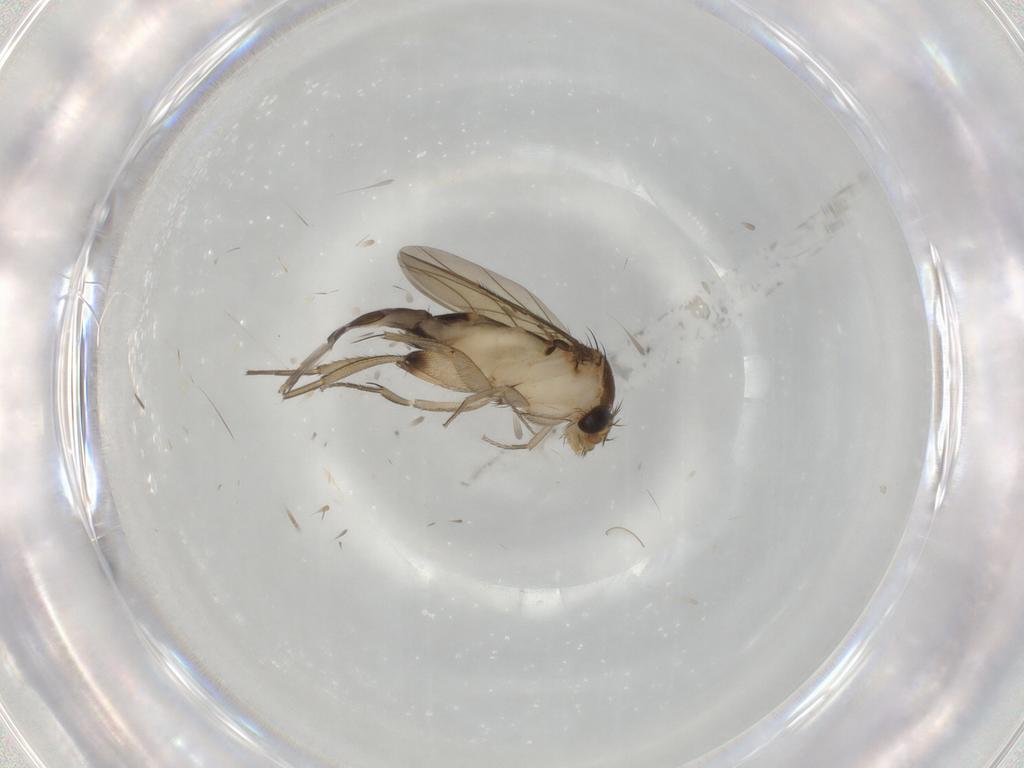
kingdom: Animalia
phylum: Arthropoda
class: Insecta
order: Diptera
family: Phoridae
